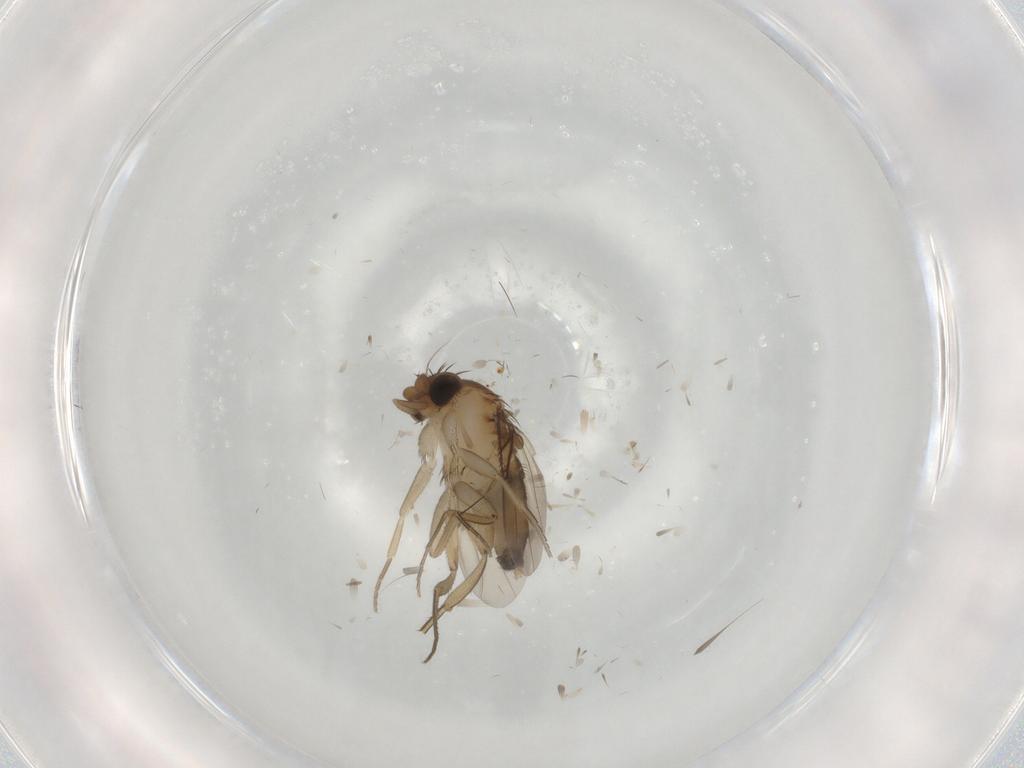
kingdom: Animalia
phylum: Arthropoda
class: Insecta
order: Diptera
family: Phoridae
